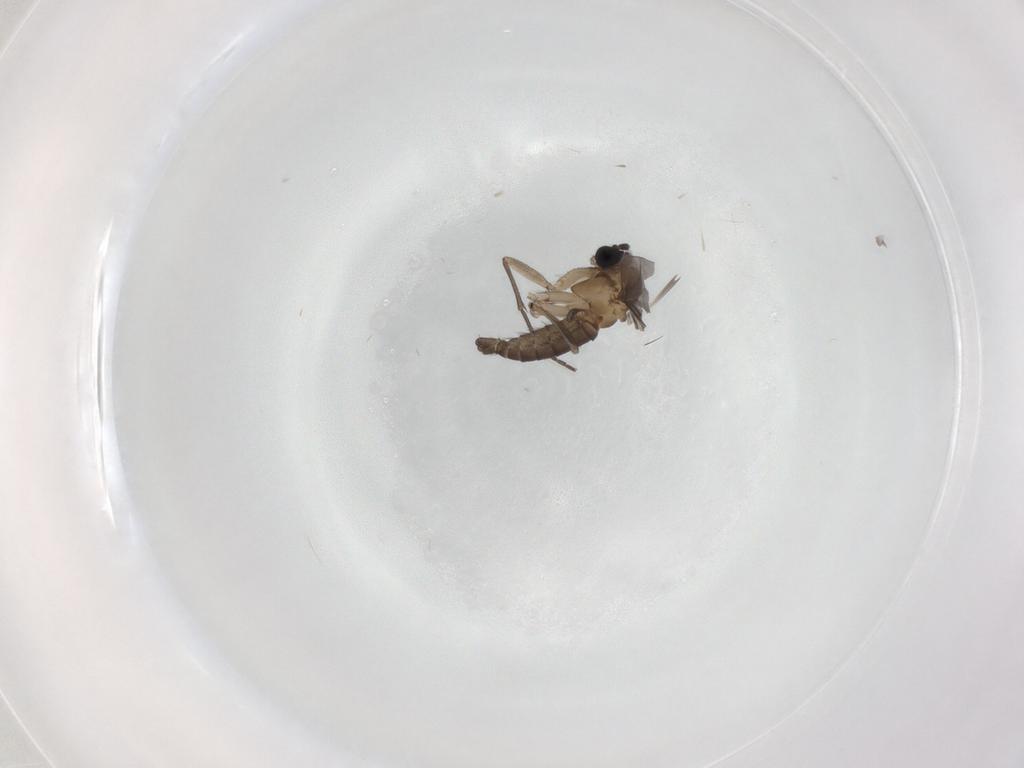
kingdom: Animalia
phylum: Arthropoda
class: Insecta
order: Diptera
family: Sciaridae
